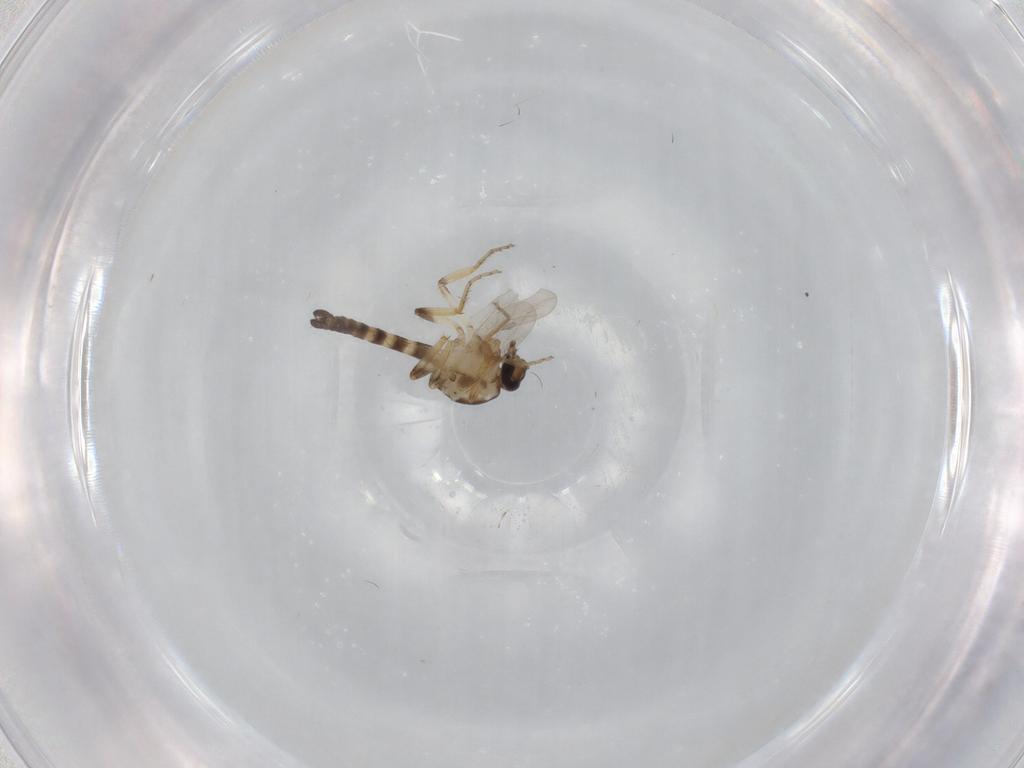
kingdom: Animalia
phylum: Arthropoda
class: Insecta
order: Diptera
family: Ceratopogonidae
